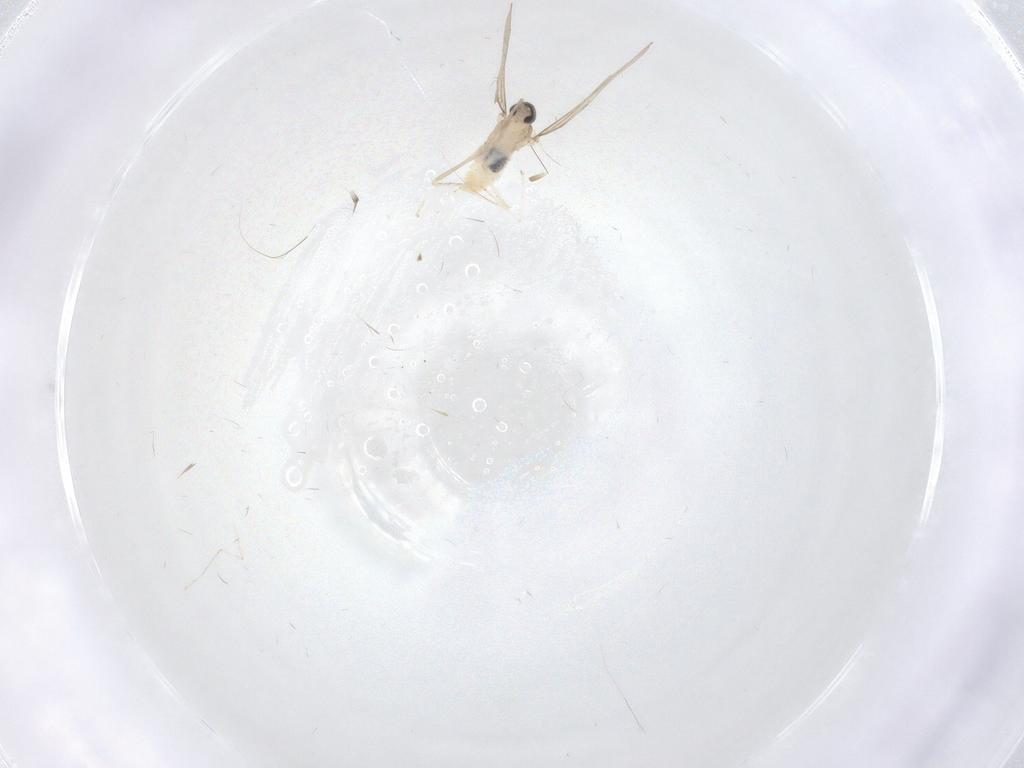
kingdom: Animalia
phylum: Arthropoda
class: Insecta
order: Diptera
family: Cecidomyiidae
